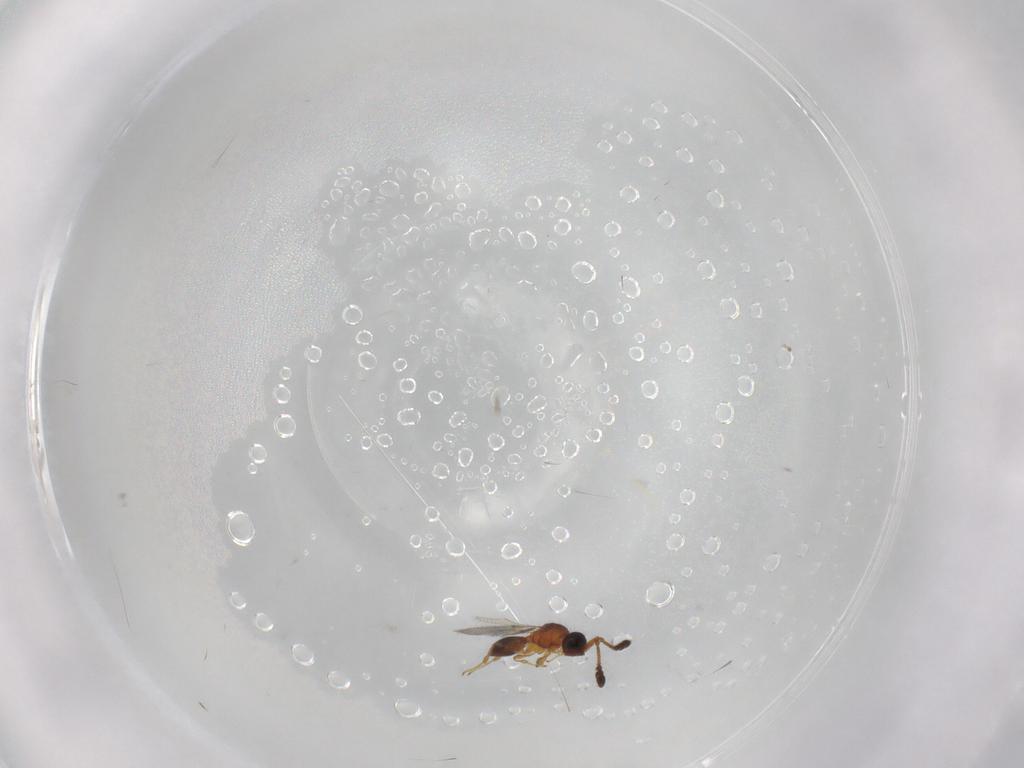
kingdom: Animalia
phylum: Arthropoda
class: Insecta
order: Hymenoptera
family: Diapriidae
